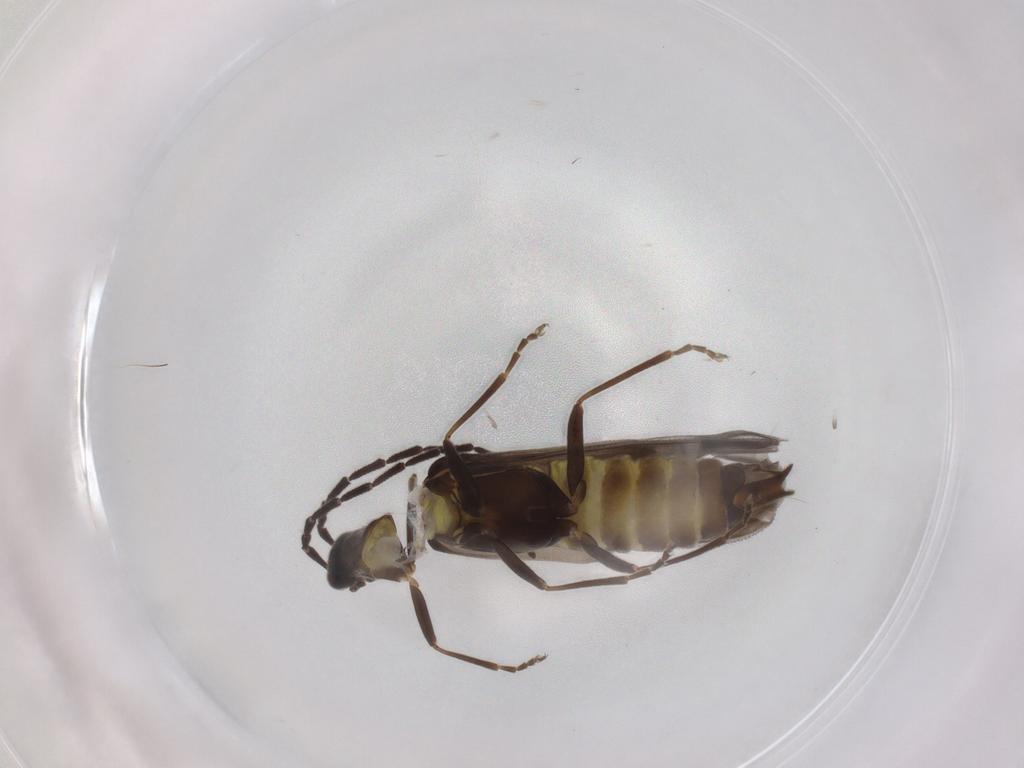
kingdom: Animalia
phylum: Arthropoda
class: Insecta
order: Coleoptera
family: Cantharidae
